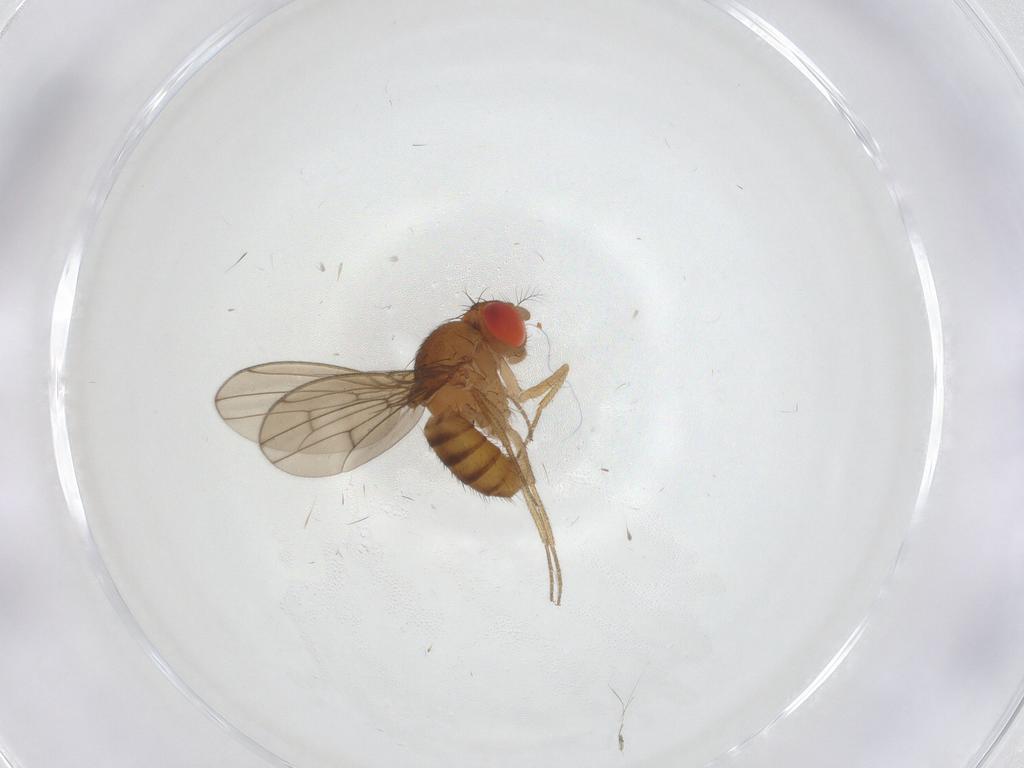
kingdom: Animalia
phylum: Arthropoda
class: Insecta
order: Diptera
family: Drosophilidae
